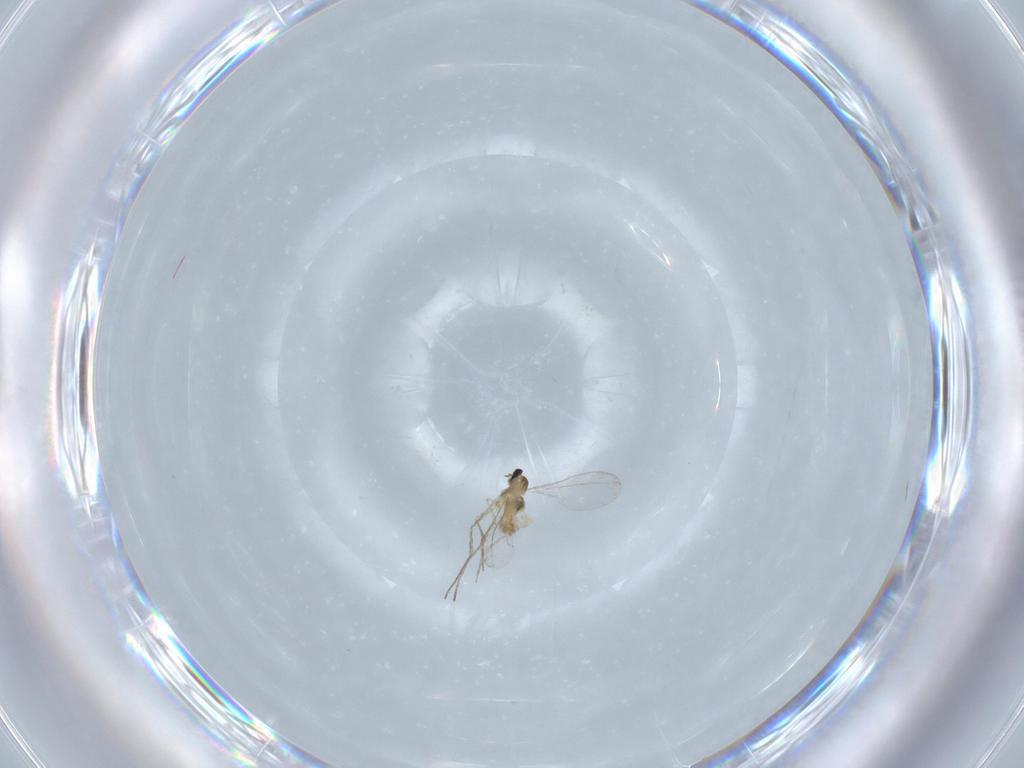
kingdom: Animalia
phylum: Arthropoda
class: Insecta
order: Diptera
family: Cecidomyiidae
